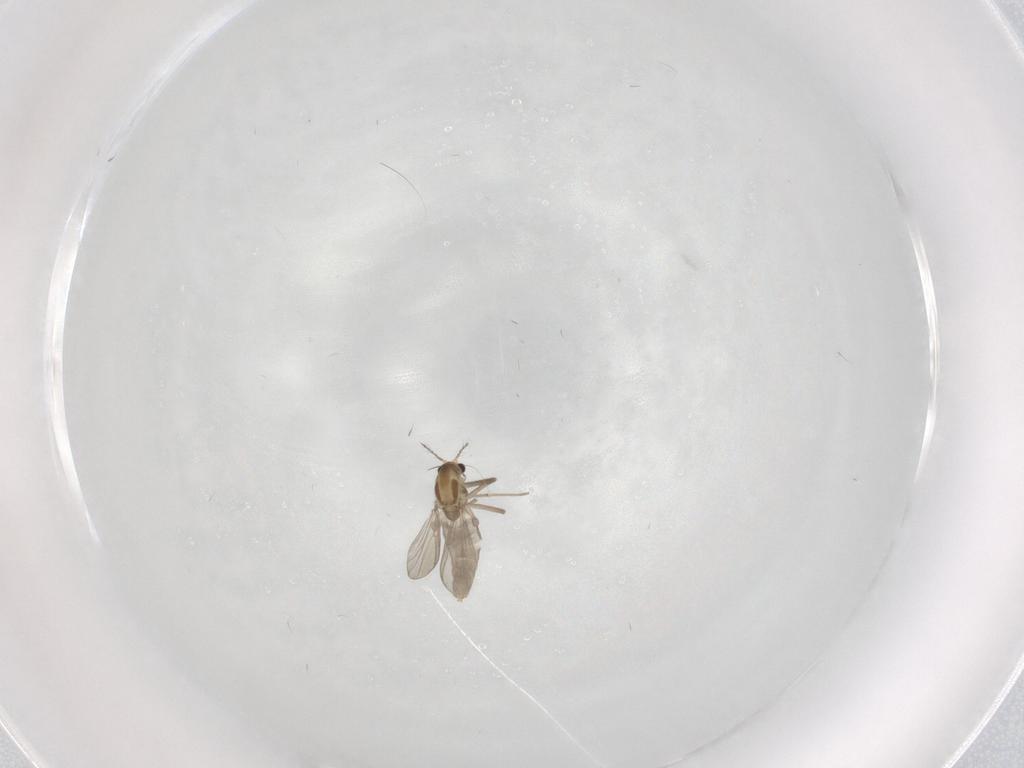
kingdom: Animalia
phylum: Arthropoda
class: Insecta
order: Diptera
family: Chironomidae
